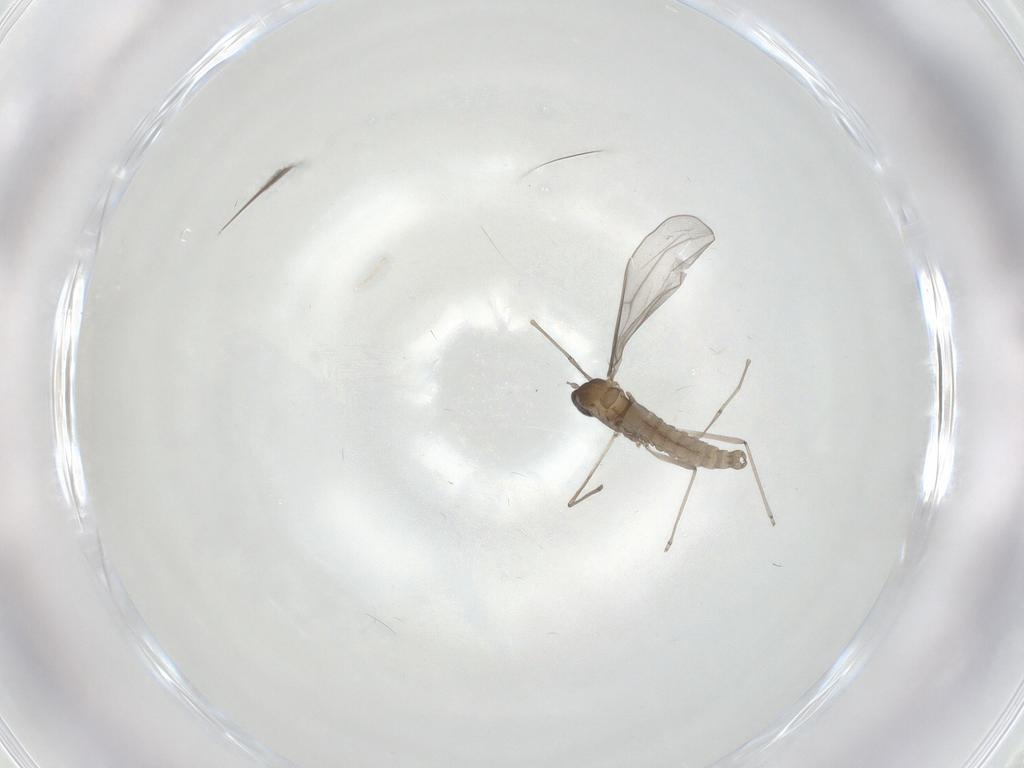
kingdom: Animalia
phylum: Arthropoda
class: Insecta
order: Diptera
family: Cecidomyiidae
